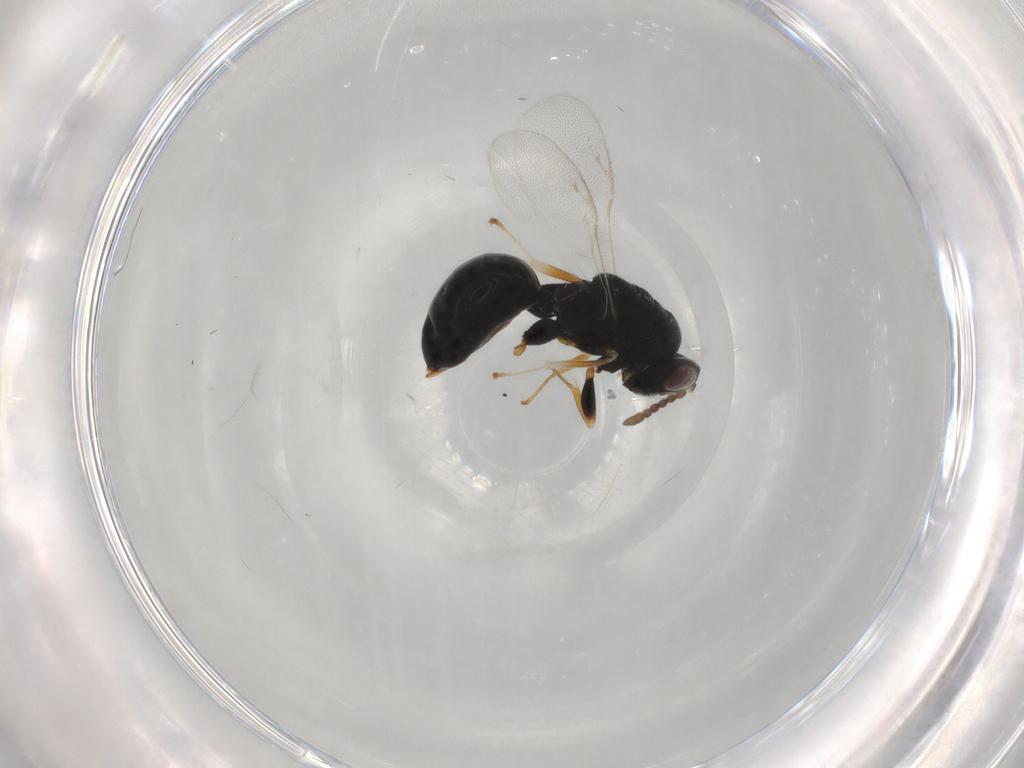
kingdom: Animalia
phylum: Arthropoda
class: Insecta
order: Hymenoptera
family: Eurytomidae
